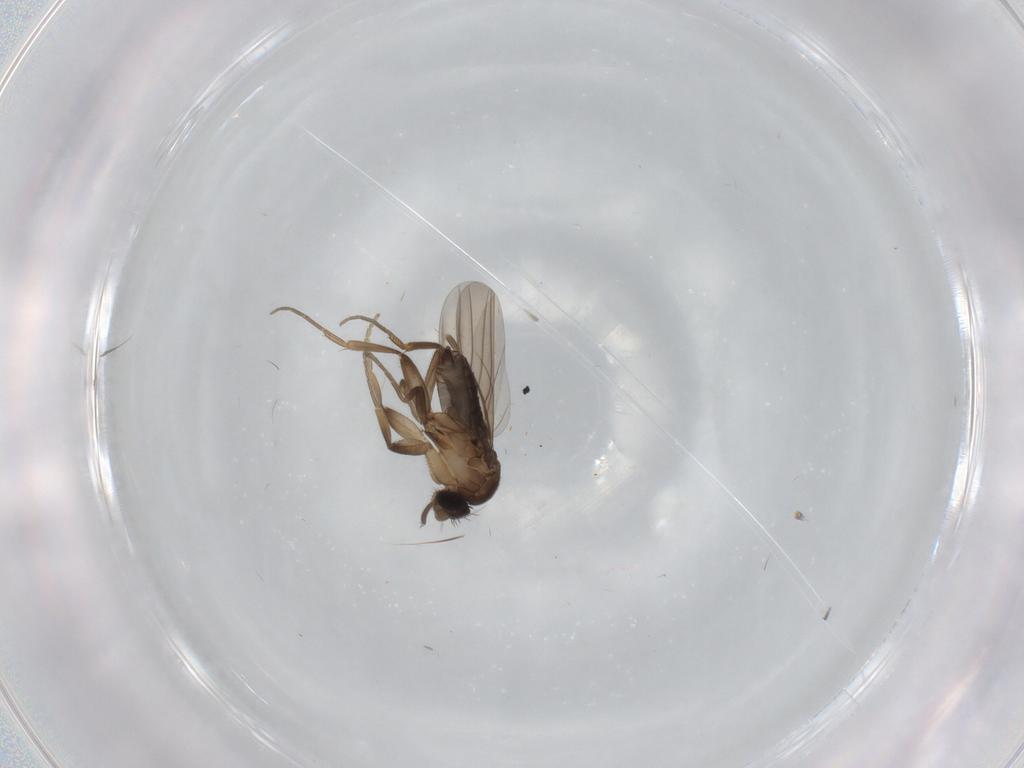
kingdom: Animalia
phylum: Arthropoda
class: Insecta
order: Diptera
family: Phoridae
